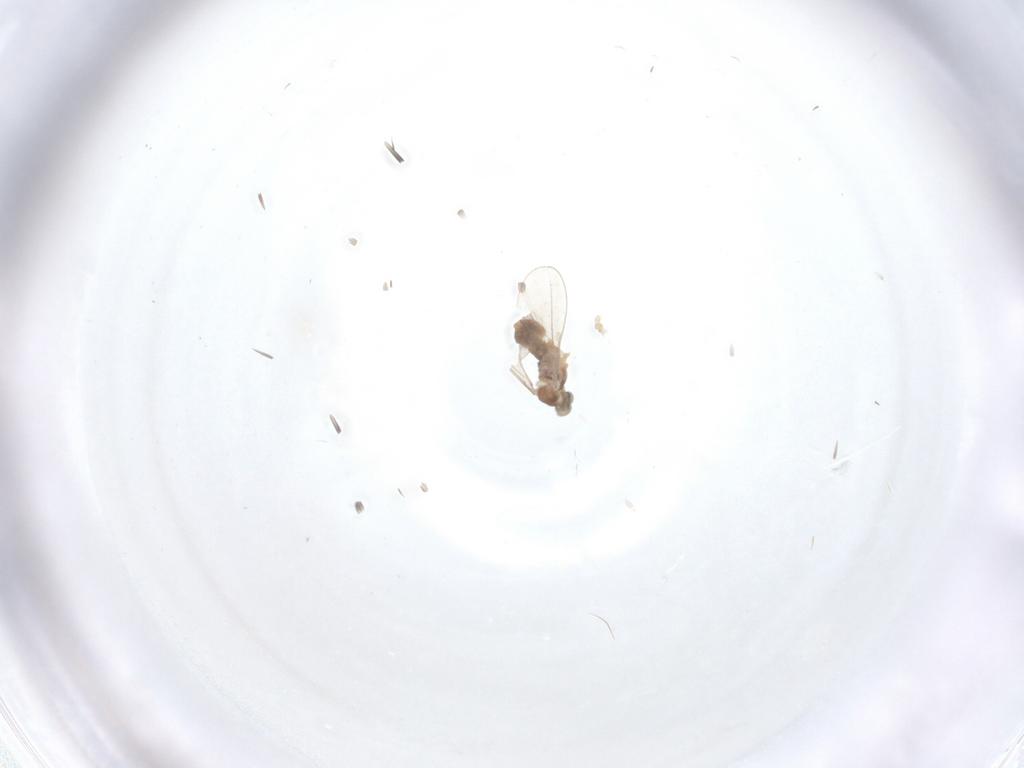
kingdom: Animalia
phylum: Arthropoda
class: Insecta
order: Diptera
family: Cecidomyiidae
